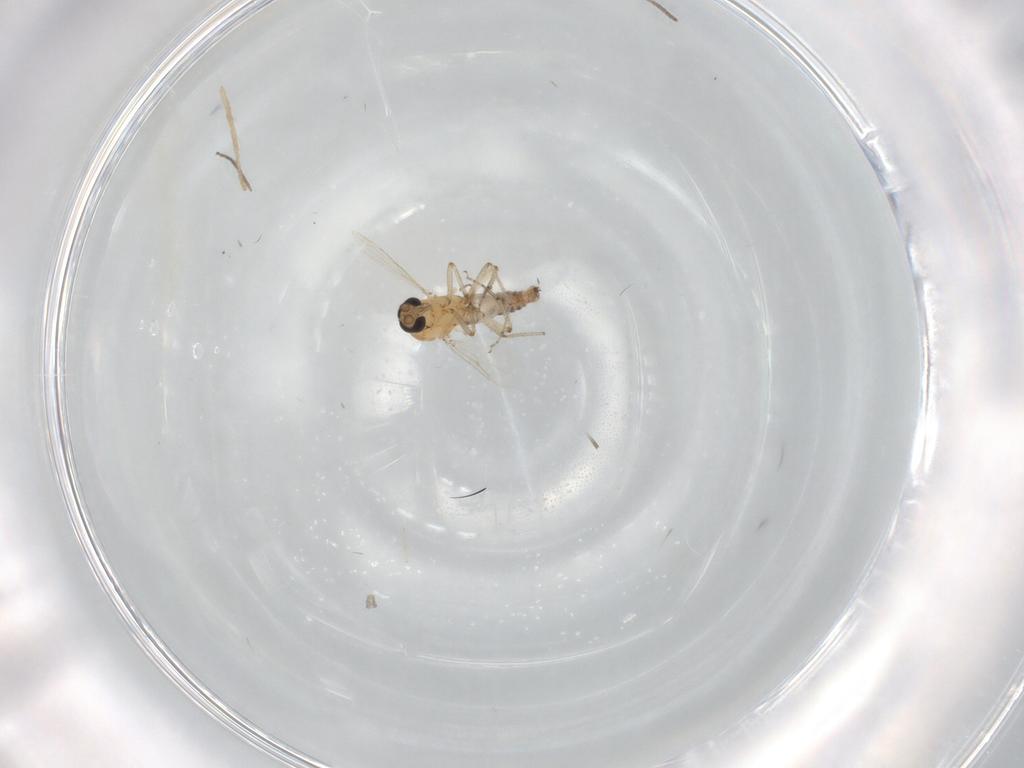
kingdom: Animalia
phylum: Arthropoda
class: Insecta
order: Diptera
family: Ceratopogonidae
